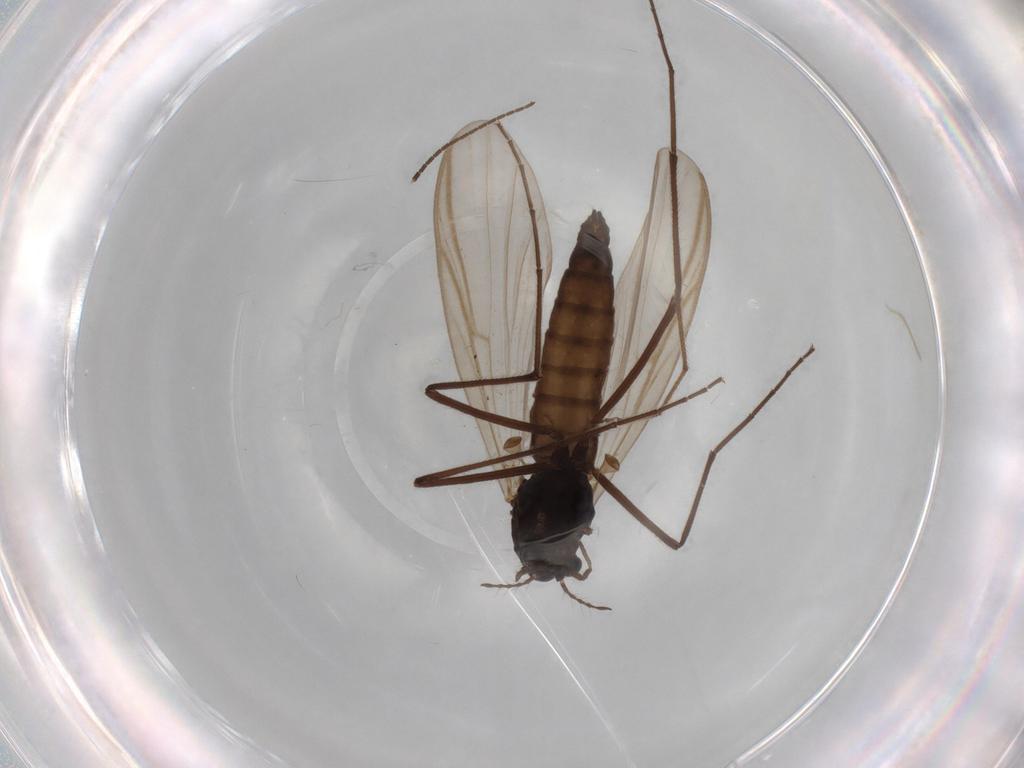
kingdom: Animalia
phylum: Arthropoda
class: Insecta
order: Diptera
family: Chironomidae
